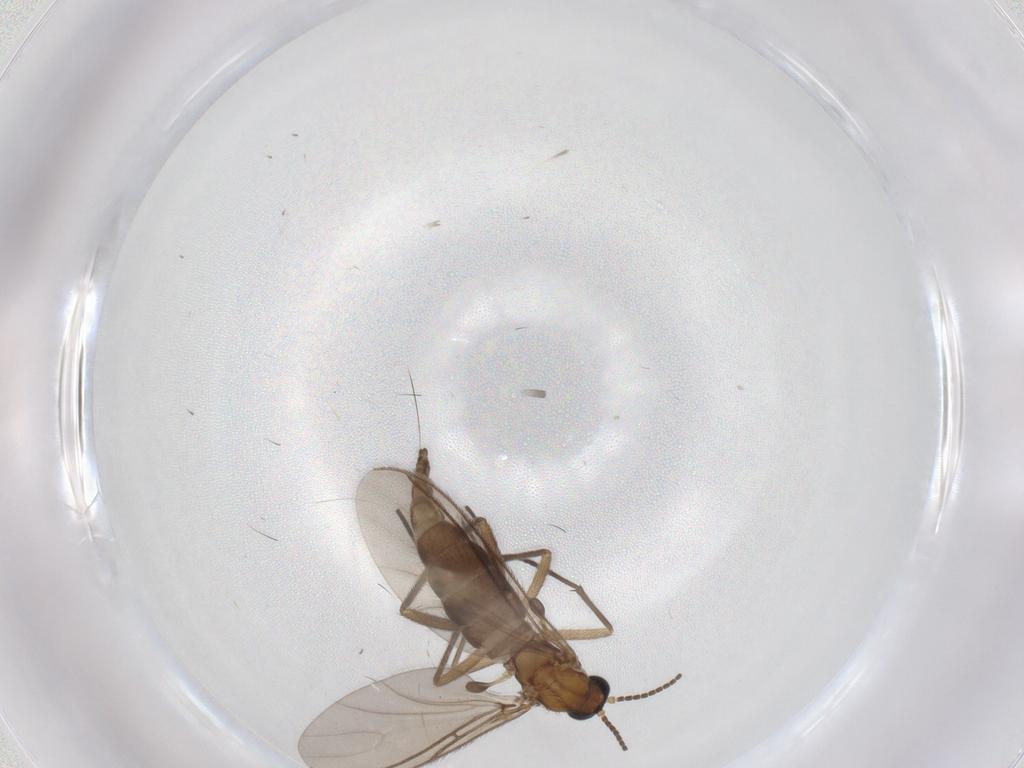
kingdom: Animalia
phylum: Arthropoda
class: Insecta
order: Diptera
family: Sciaridae
